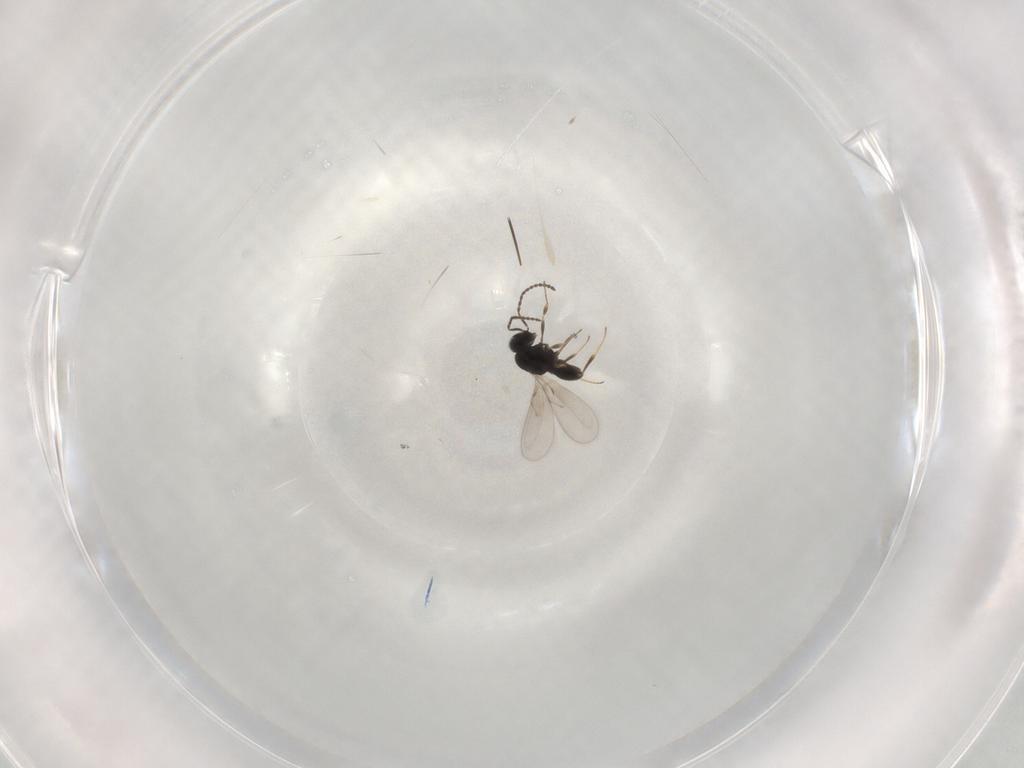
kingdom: Animalia
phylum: Arthropoda
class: Insecta
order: Hymenoptera
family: Scelionidae
